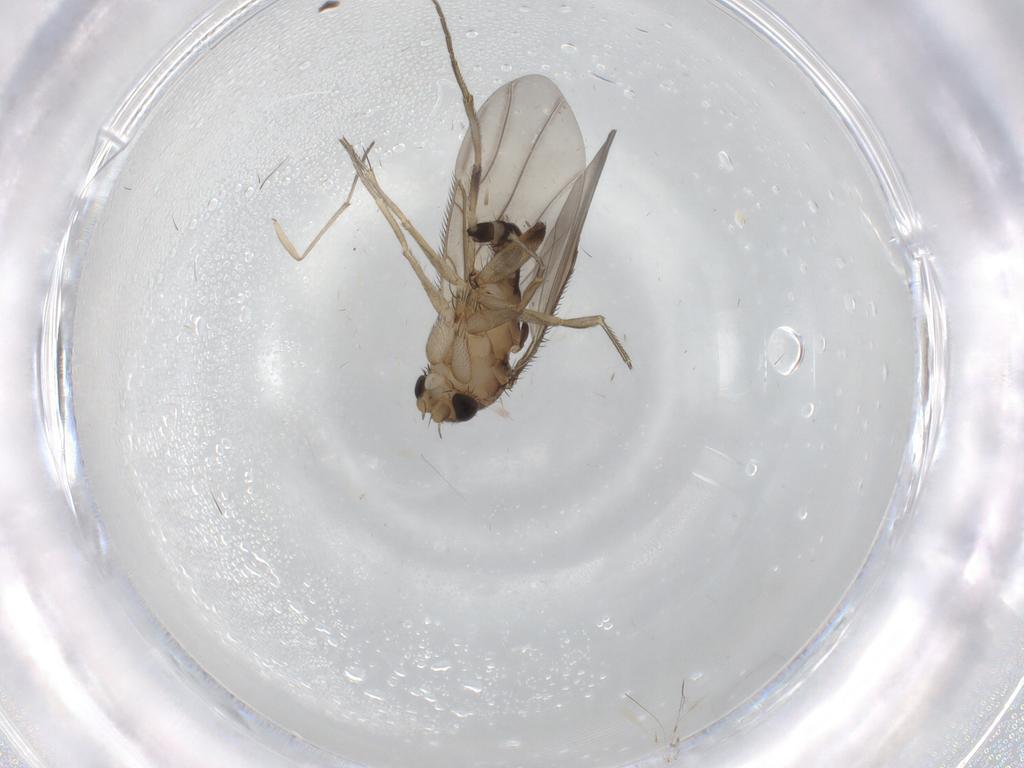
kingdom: Animalia
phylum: Arthropoda
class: Insecta
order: Diptera
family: Phoridae
